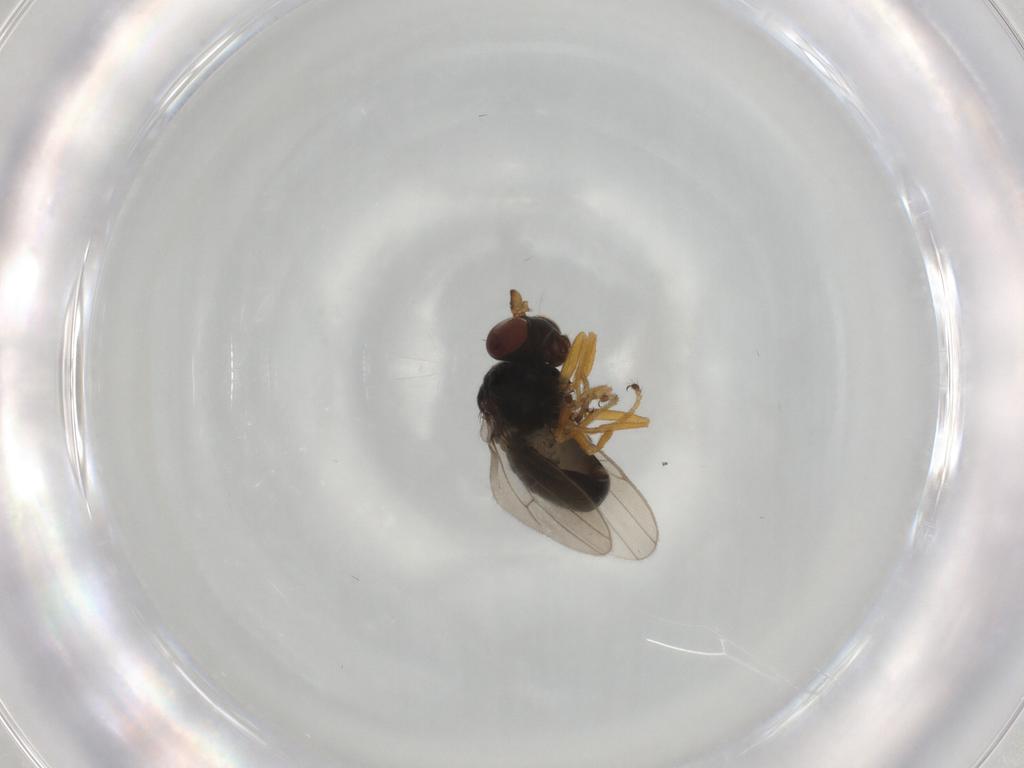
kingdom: Animalia
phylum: Arthropoda
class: Insecta
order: Diptera
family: Ephydridae
